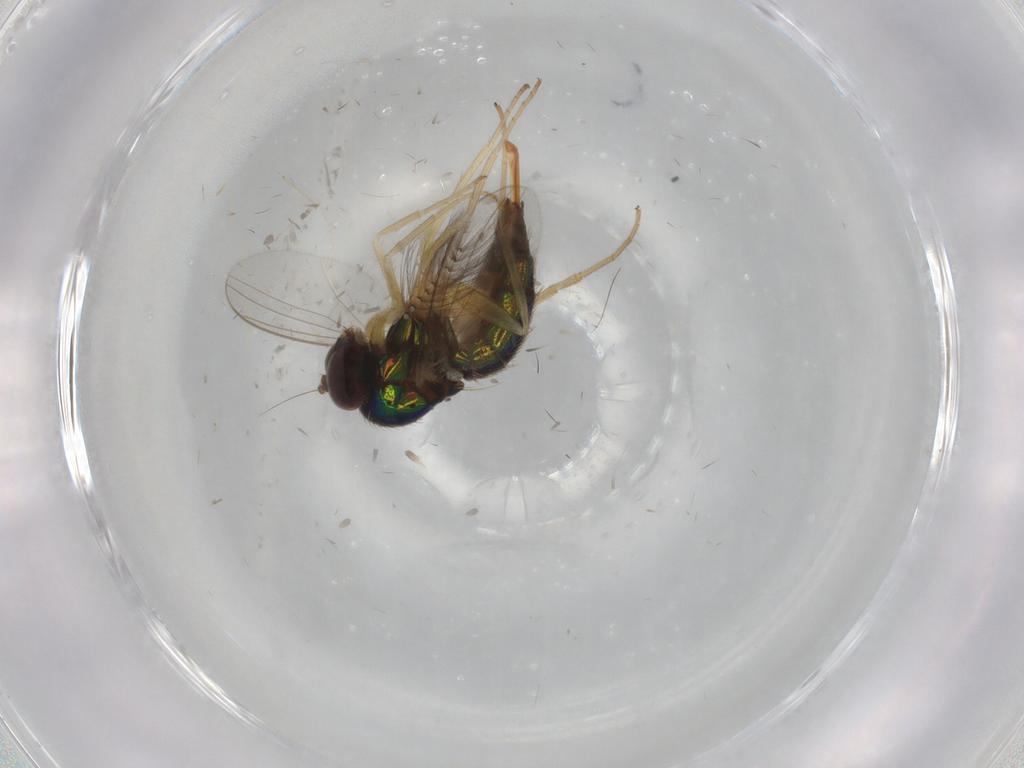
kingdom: Animalia
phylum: Arthropoda
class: Insecta
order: Diptera
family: Dolichopodidae
